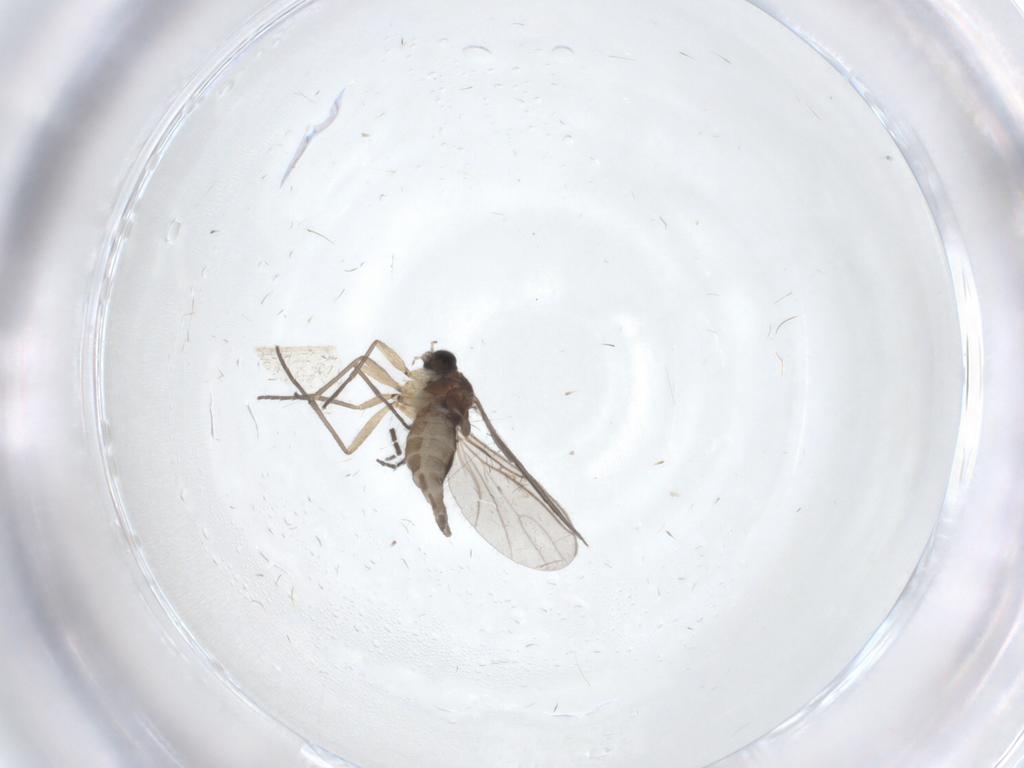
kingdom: Animalia
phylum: Arthropoda
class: Insecta
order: Diptera
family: Sciaridae
